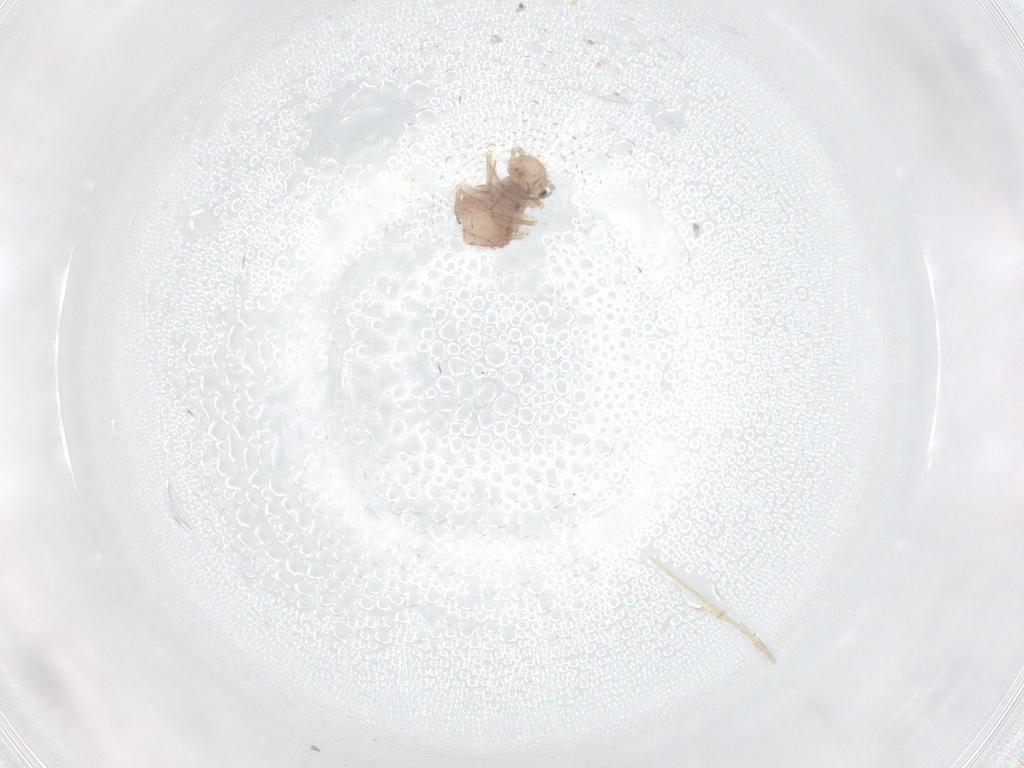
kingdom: Animalia
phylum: Arthropoda
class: Insecta
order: Psocodea
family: Ectopsocidae
